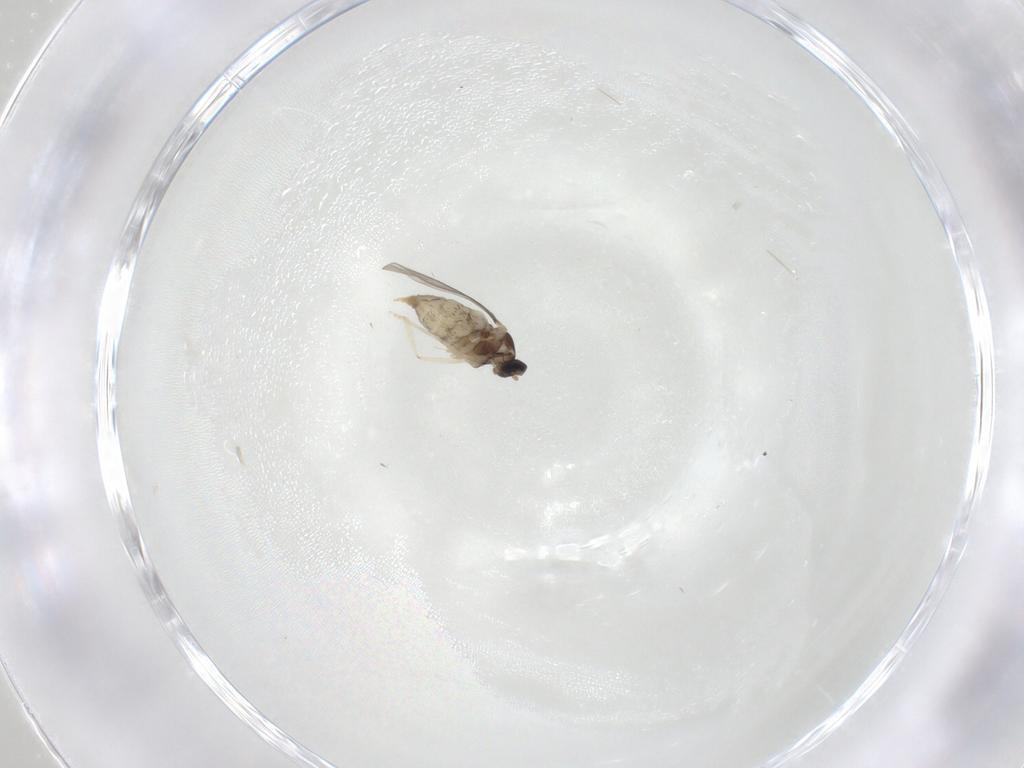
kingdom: Animalia
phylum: Arthropoda
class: Insecta
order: Diptera
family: Cecidomyiidae
